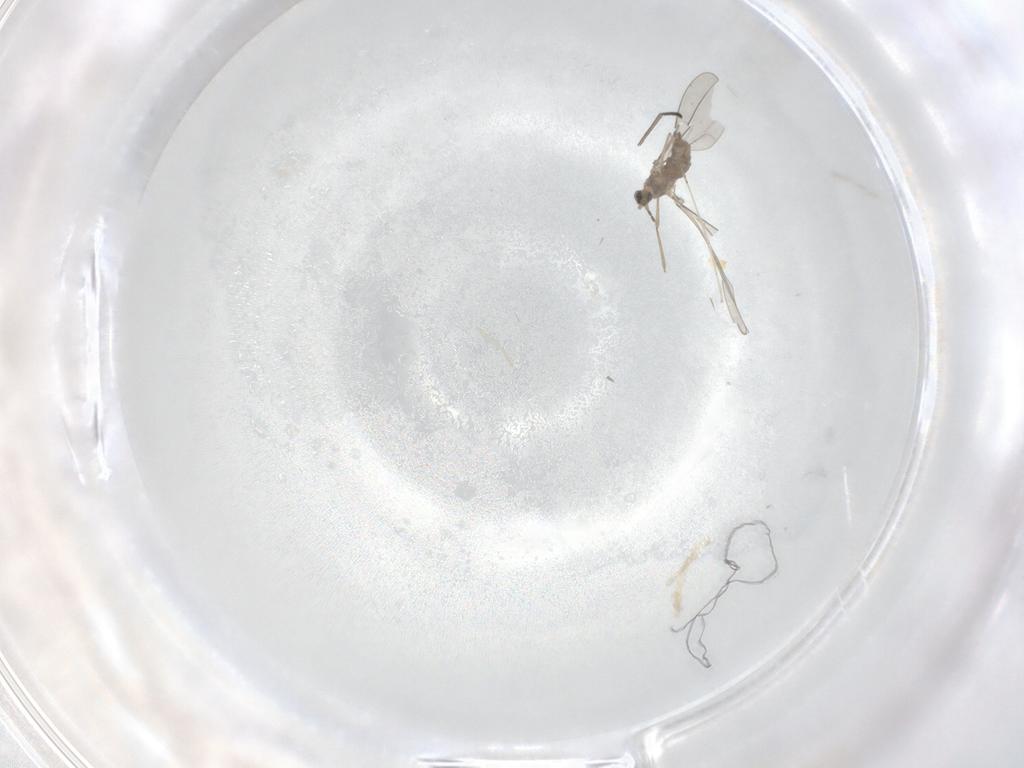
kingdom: Animalia
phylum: Arthropoda
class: Insecta
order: Diptera
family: Cecidomyiidae
